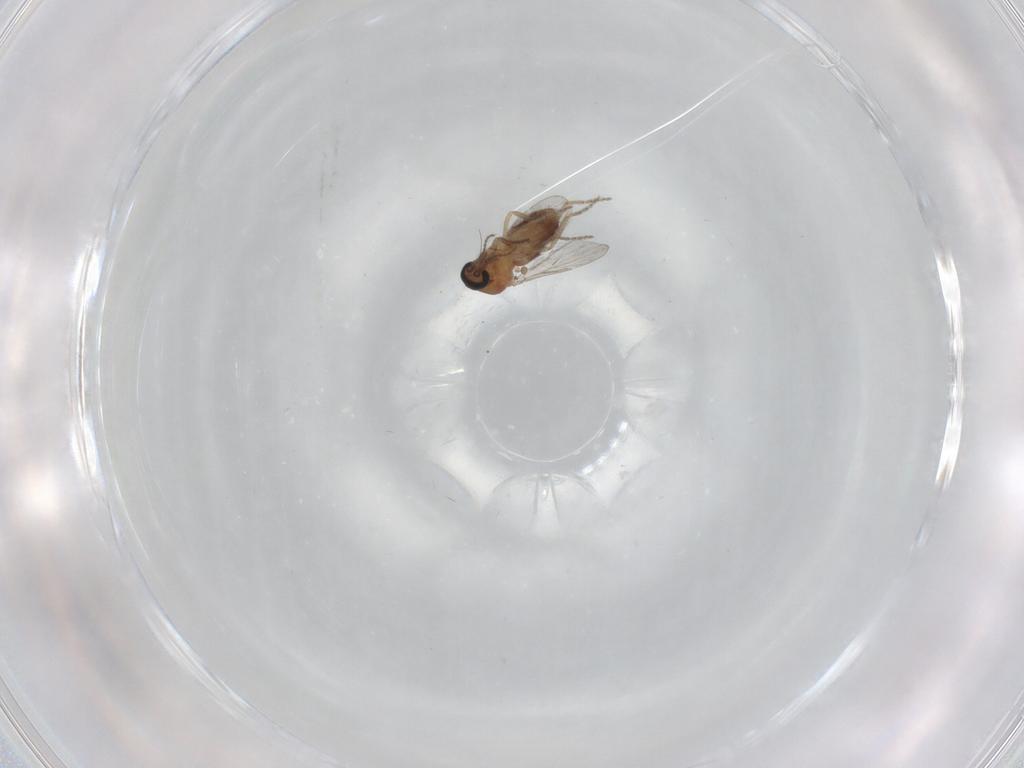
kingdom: Animalia
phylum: Arthropoda
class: Insecta
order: Diptera
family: Ceratopogonidae
